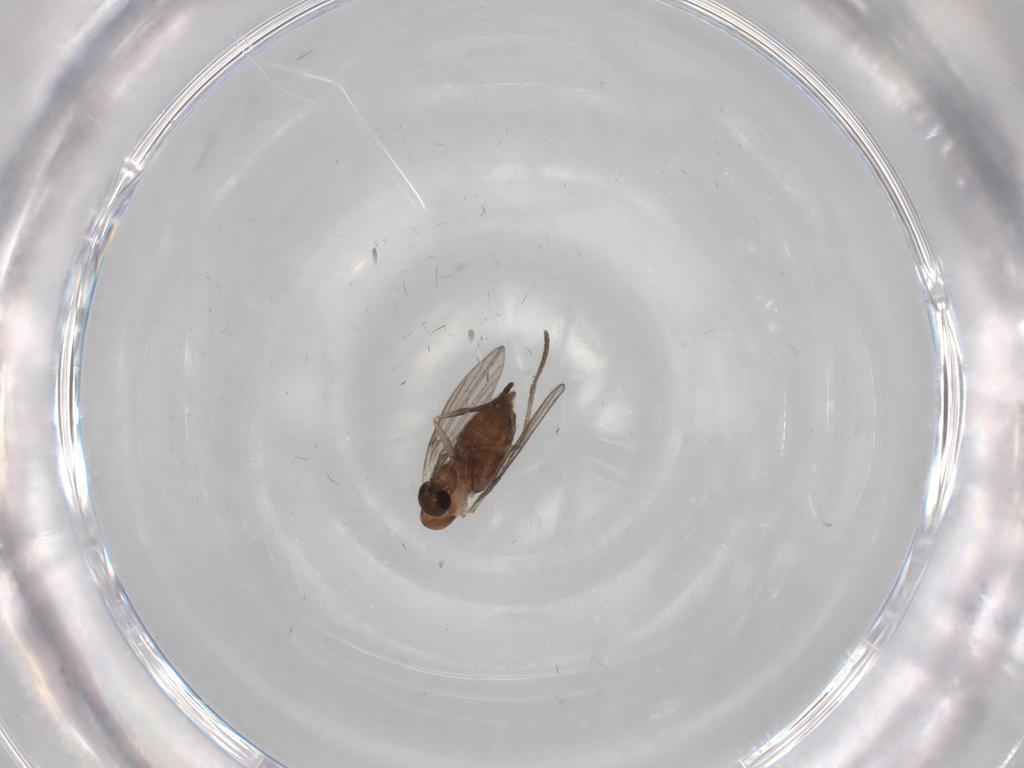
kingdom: Animalia
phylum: Arthropoda
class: Insecta
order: Diptera
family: Psychodidae
